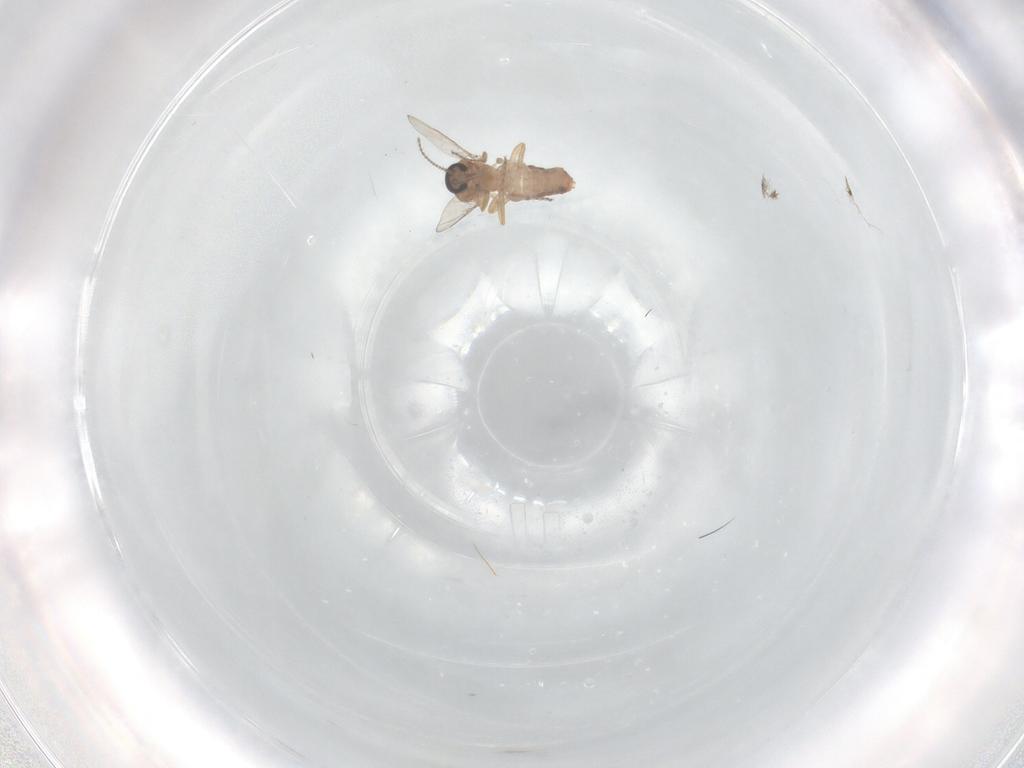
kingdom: Animalia
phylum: Arthropoda
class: Insecta
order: Diptera
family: Ceratopogonidae
